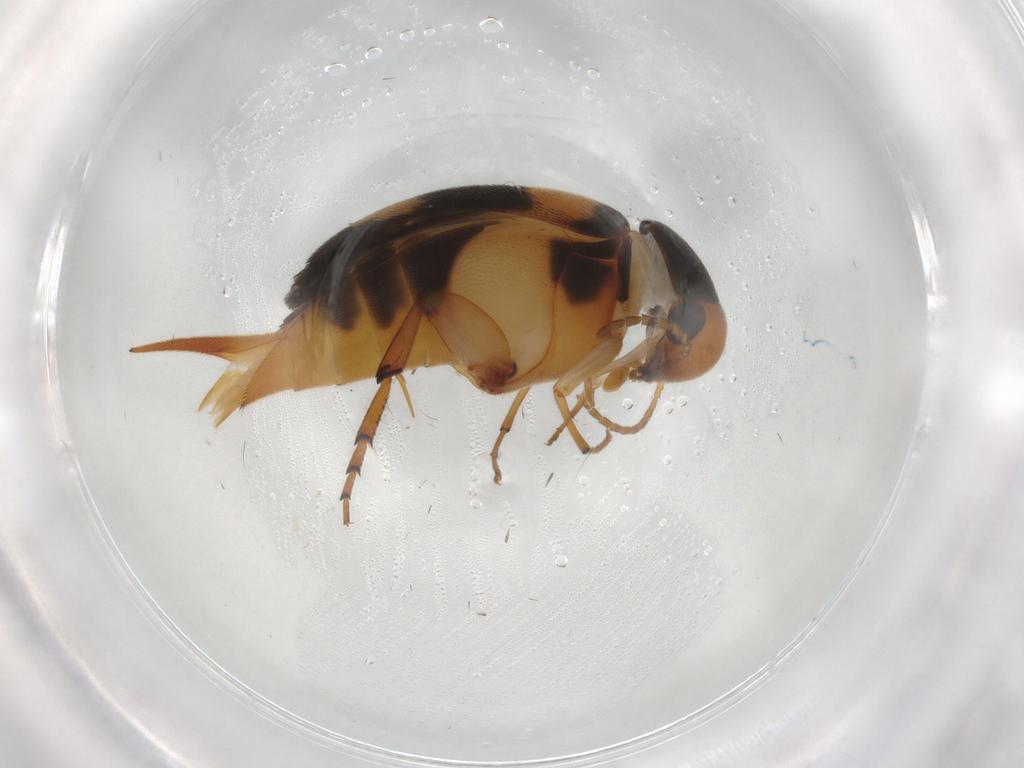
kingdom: Animalia
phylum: Arthropoda
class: Insecta
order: Coleoptera
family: Mordellidae
